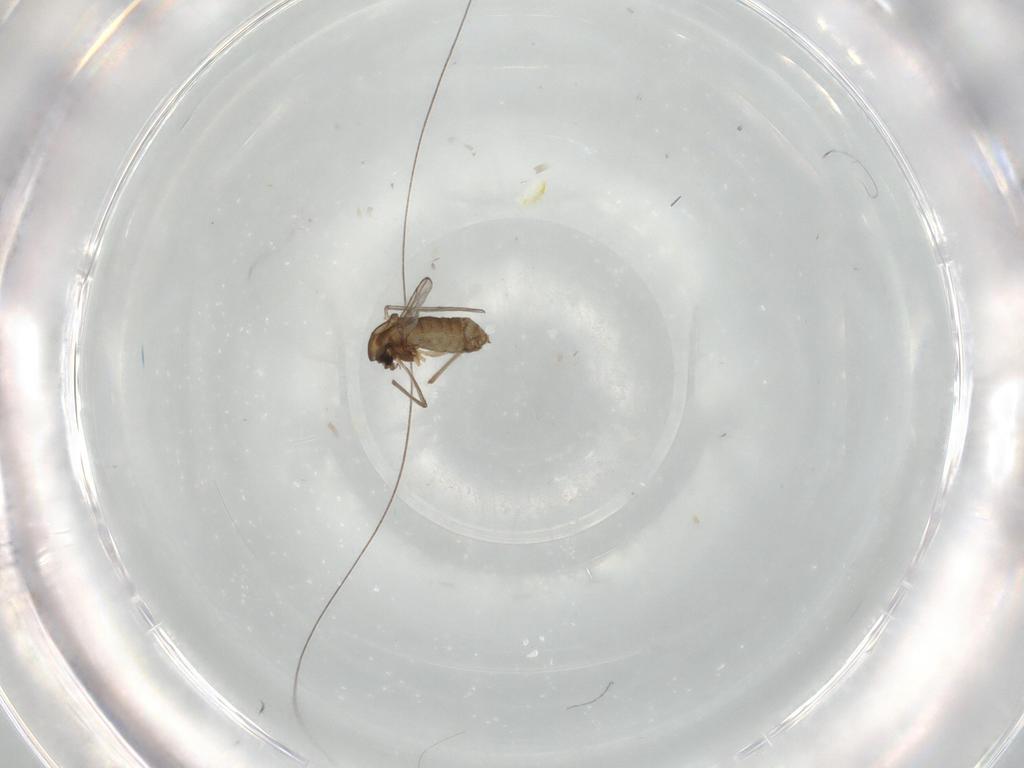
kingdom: Animalia
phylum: Arthropoda
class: Insecta
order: Diptera
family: Chironomidae
